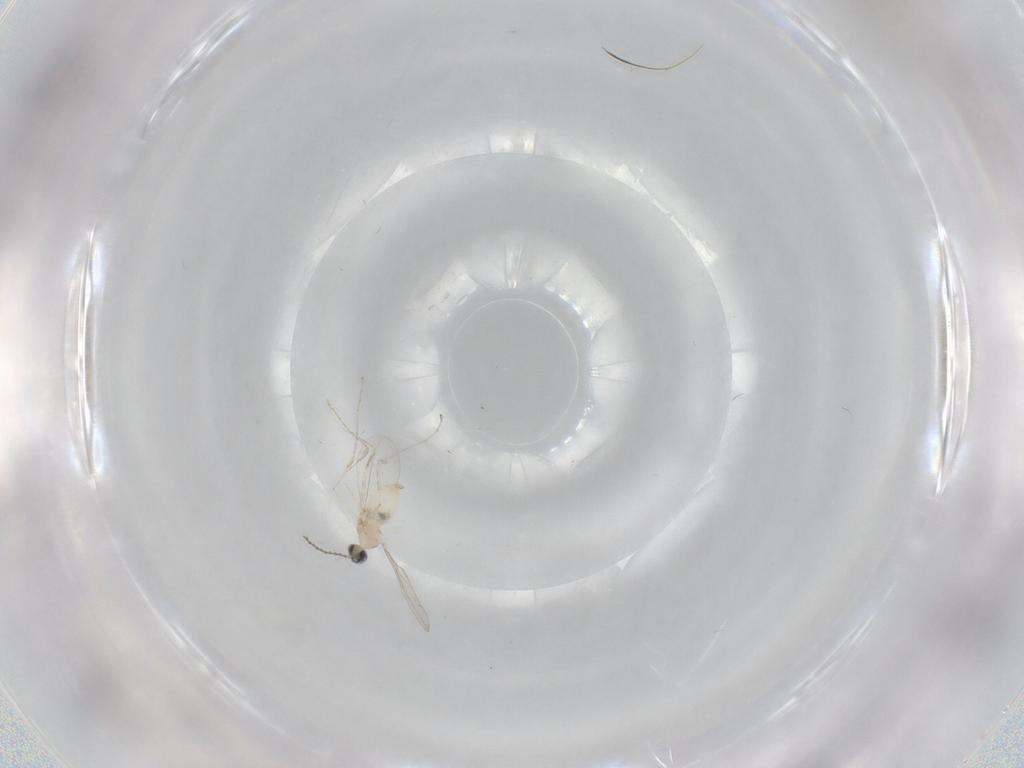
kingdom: Animalia
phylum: Arthropoda
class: Insecta
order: Diptera
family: Cecidomyiidae
